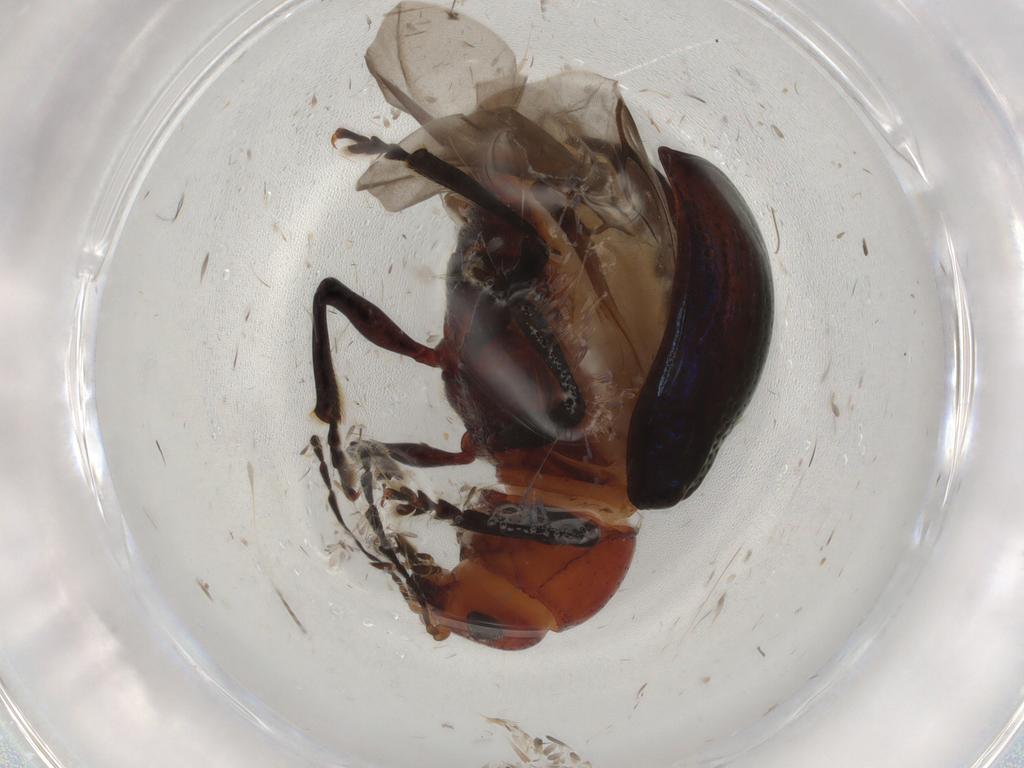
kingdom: Animalia
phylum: Arthropoda
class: Insecta
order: Coleoptera
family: Chrysomelidae
